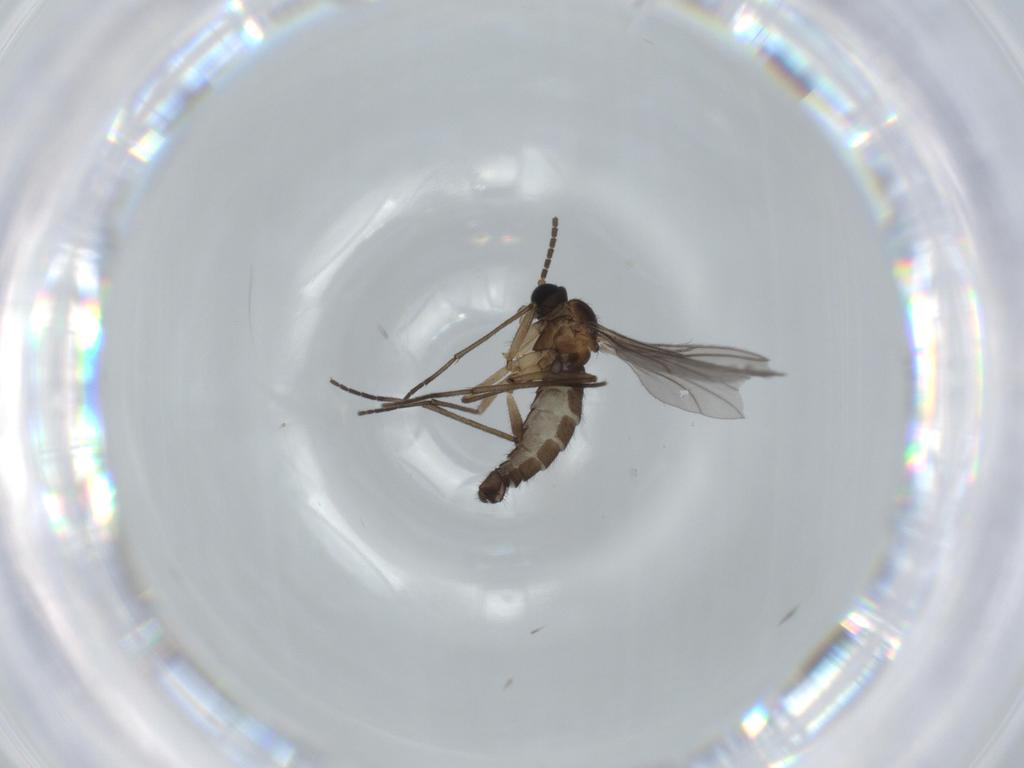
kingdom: Animalia
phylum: Arthropoda
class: Insecta
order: Diptera
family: Sciaridae
